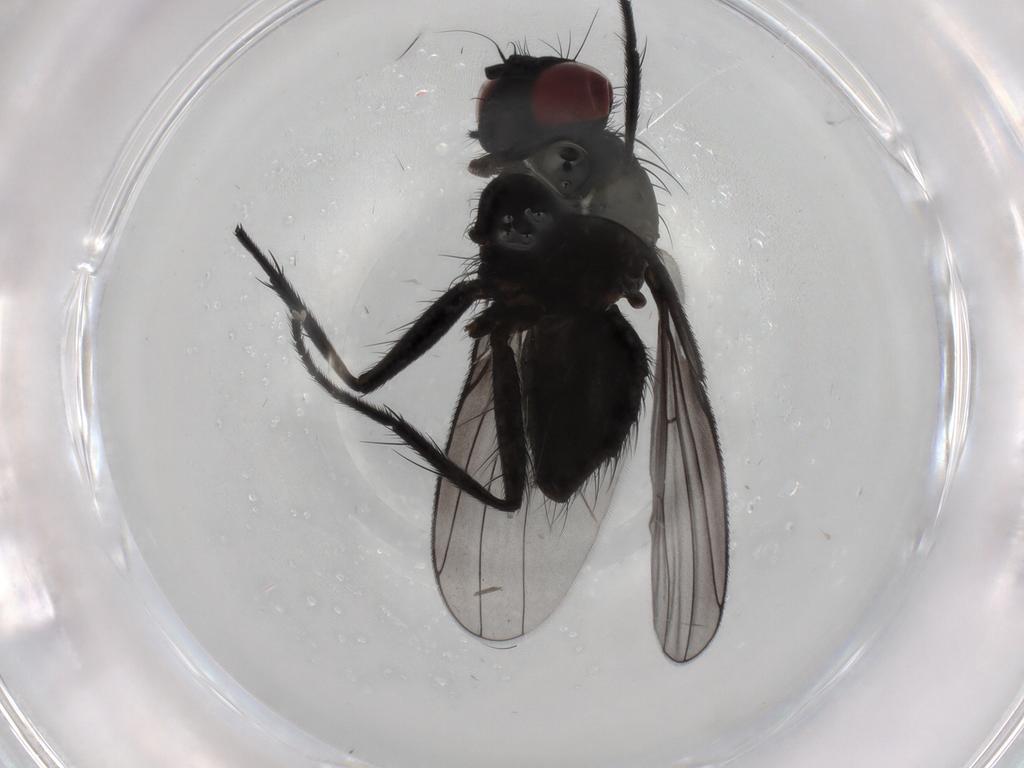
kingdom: Animalia
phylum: Arthropoda
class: Insecta
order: Diptera
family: Muscidae
